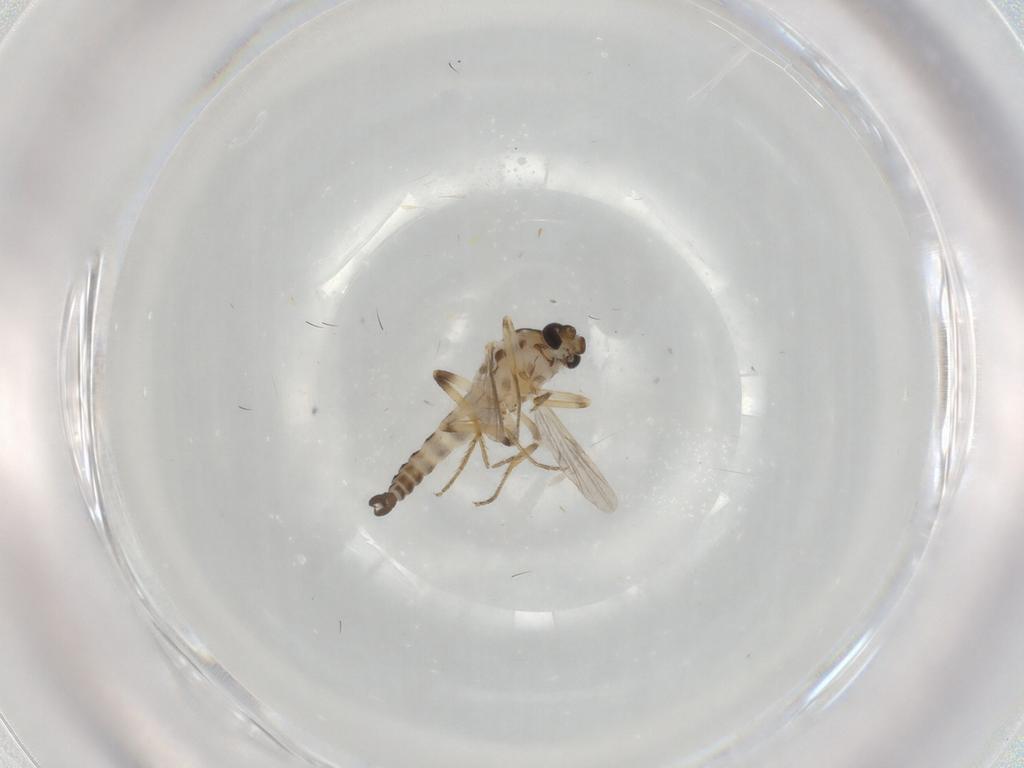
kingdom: Animalia
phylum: Arthropoda
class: Insecta
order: Diptera
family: Ceratopogonidae
